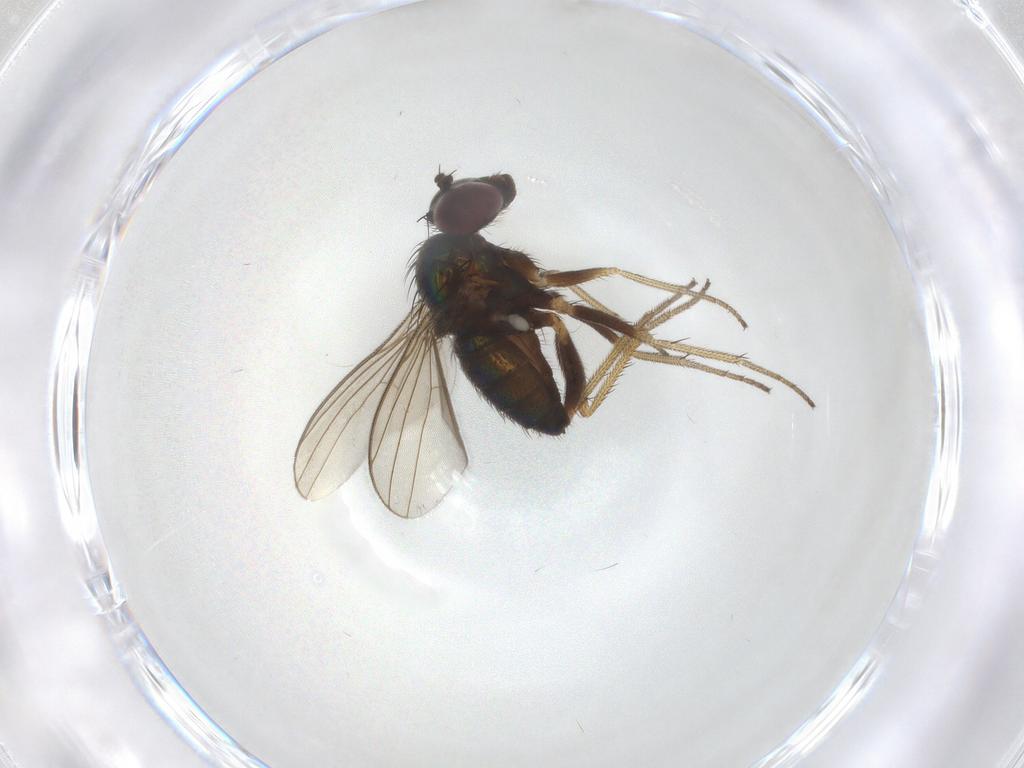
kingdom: Animalia
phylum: Arthropoda
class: Insecta
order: Diptera
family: Dolichopodidae
